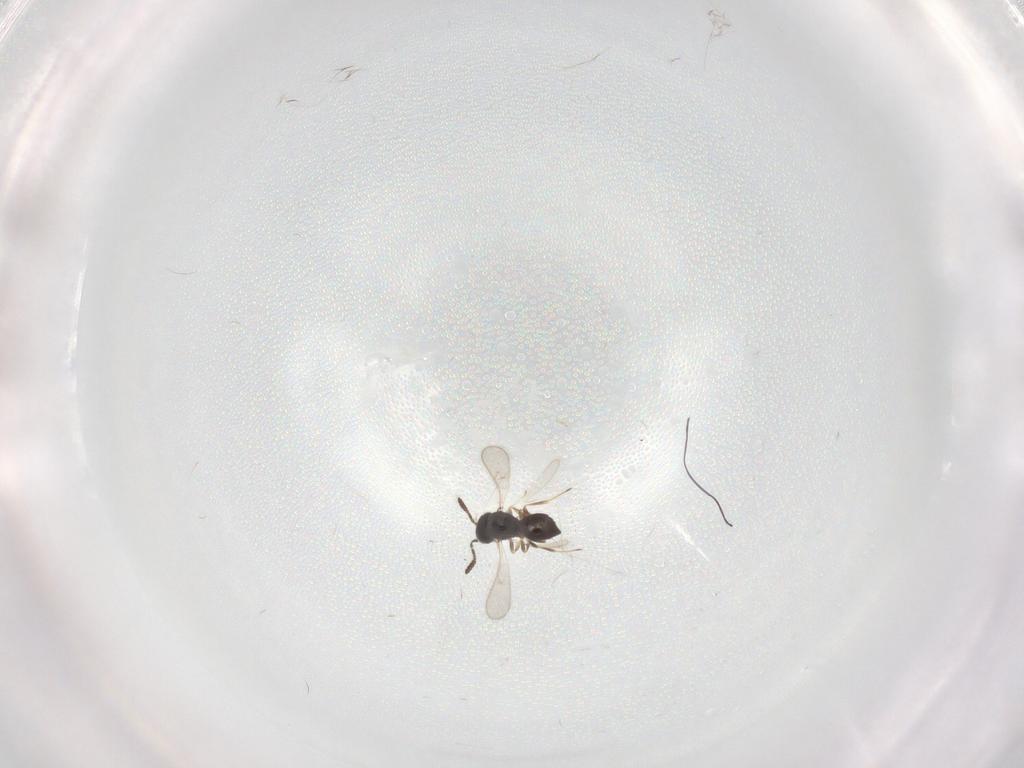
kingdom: Animalia
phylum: Arthropoda
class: Insecta
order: Hymenoptera
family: Scelionidae
